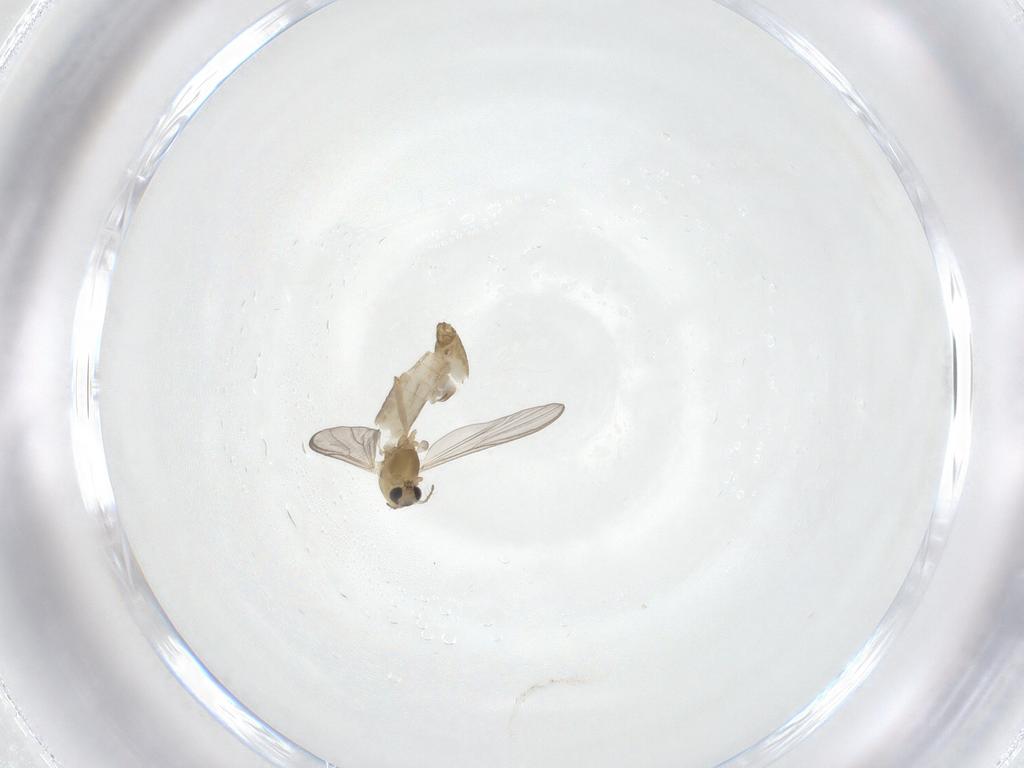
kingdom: Animalia
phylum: Arthropoda
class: Insecta
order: Diptera
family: Chironomidae
